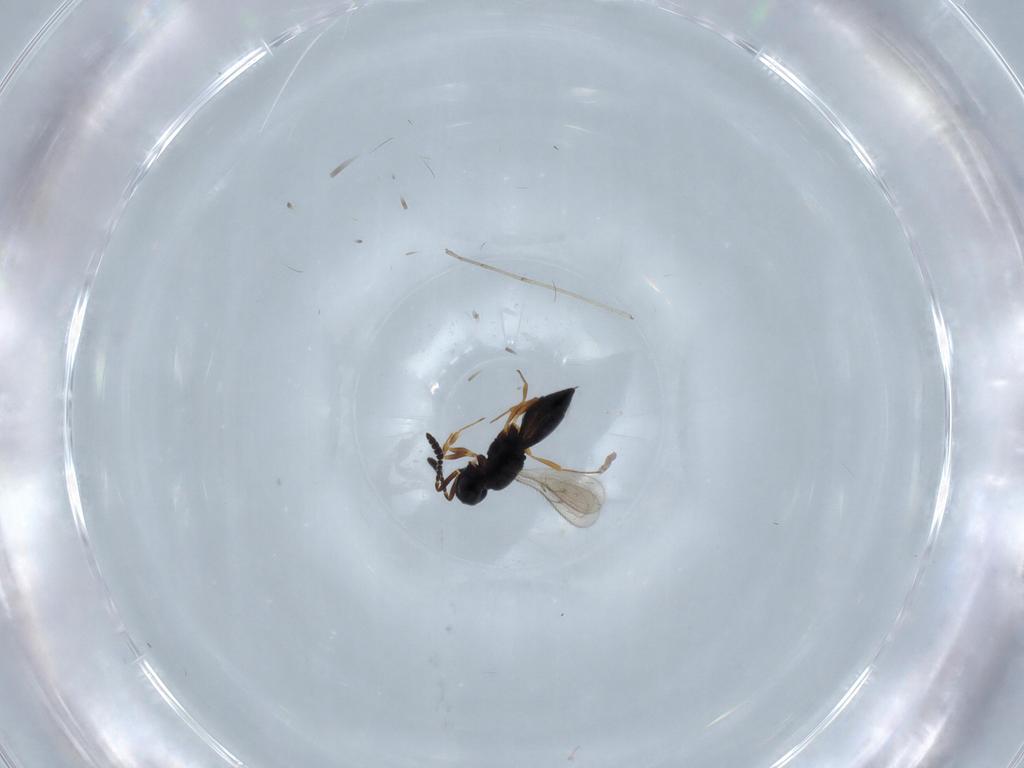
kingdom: Animalia
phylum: Arthropoda
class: Insecta
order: Hymenoptera
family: Scelionidae
